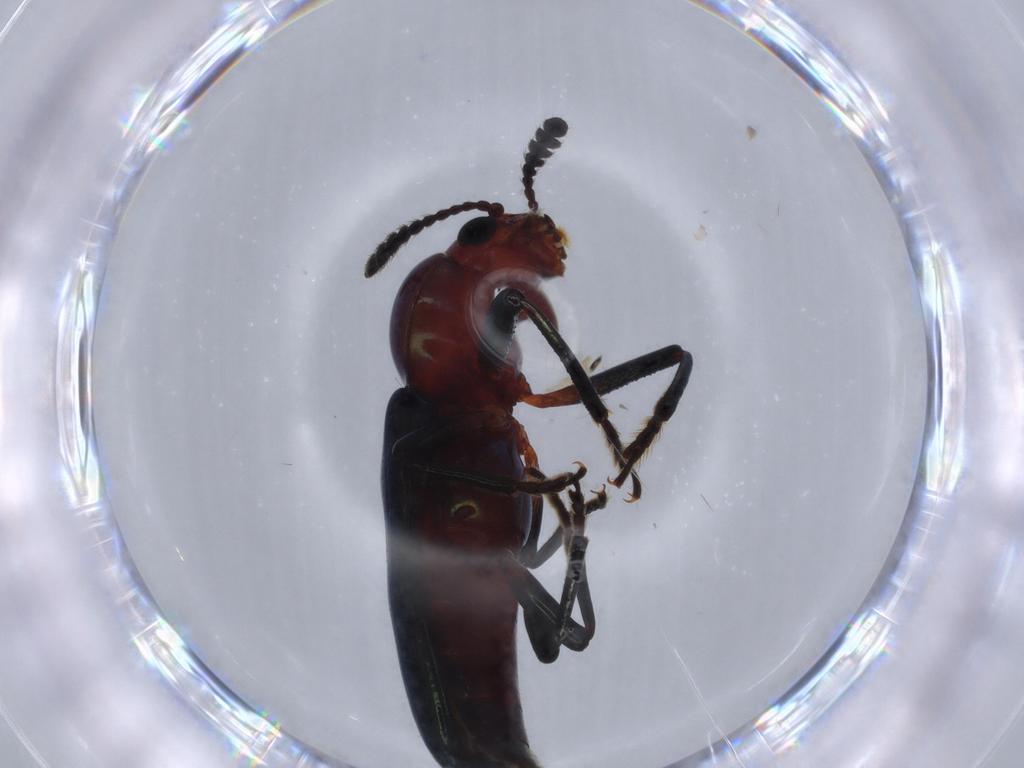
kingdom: Animalia
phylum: Arthropoda
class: Insecta
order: Coleoptera
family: Erotylidae
